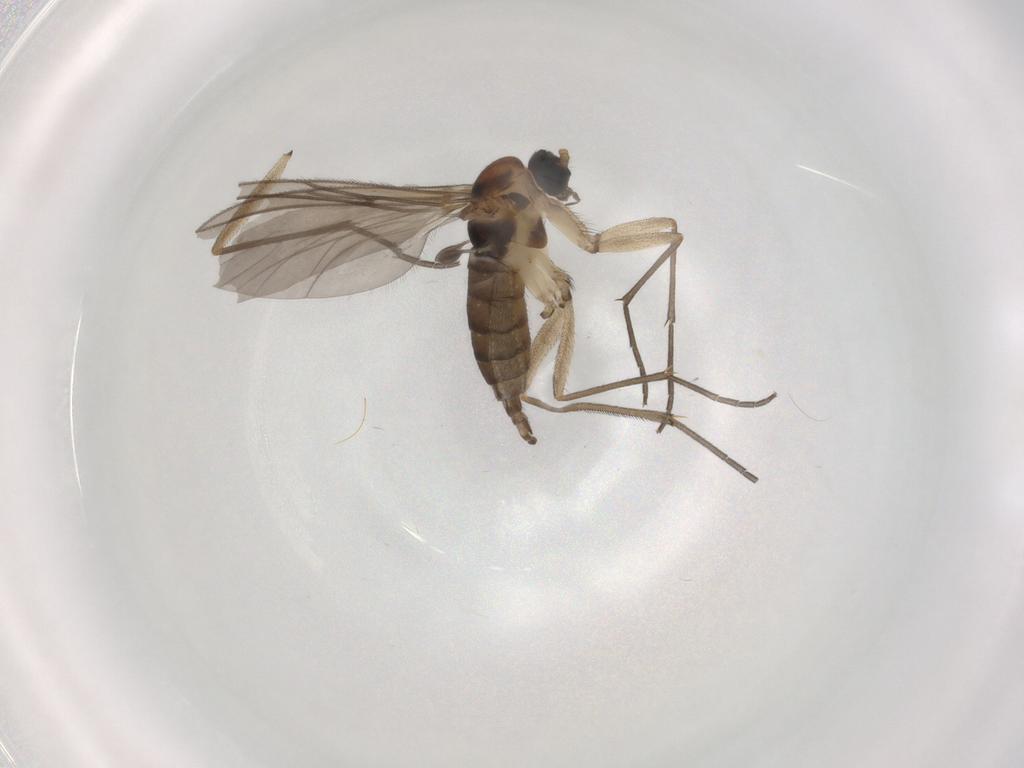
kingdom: Animalia
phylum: Arthropoda
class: Insecta
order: Diptera
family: Sciaridae
